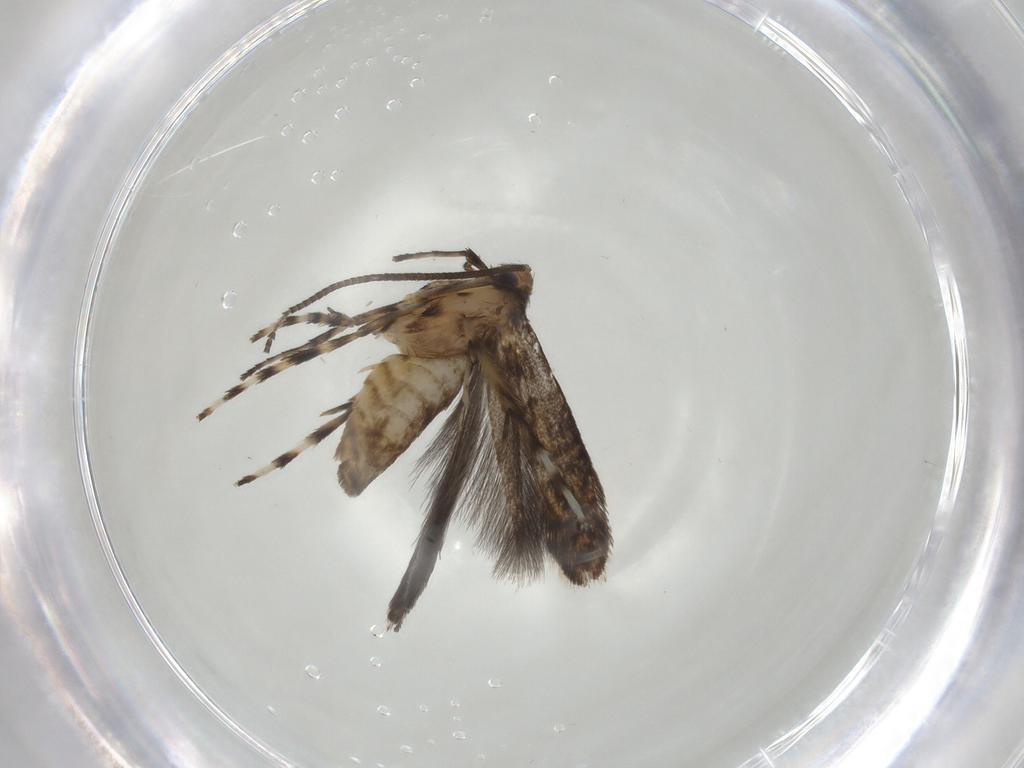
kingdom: Animalia
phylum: Arthropoda
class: Insecta
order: Lepidoptera
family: Gracillariidae
